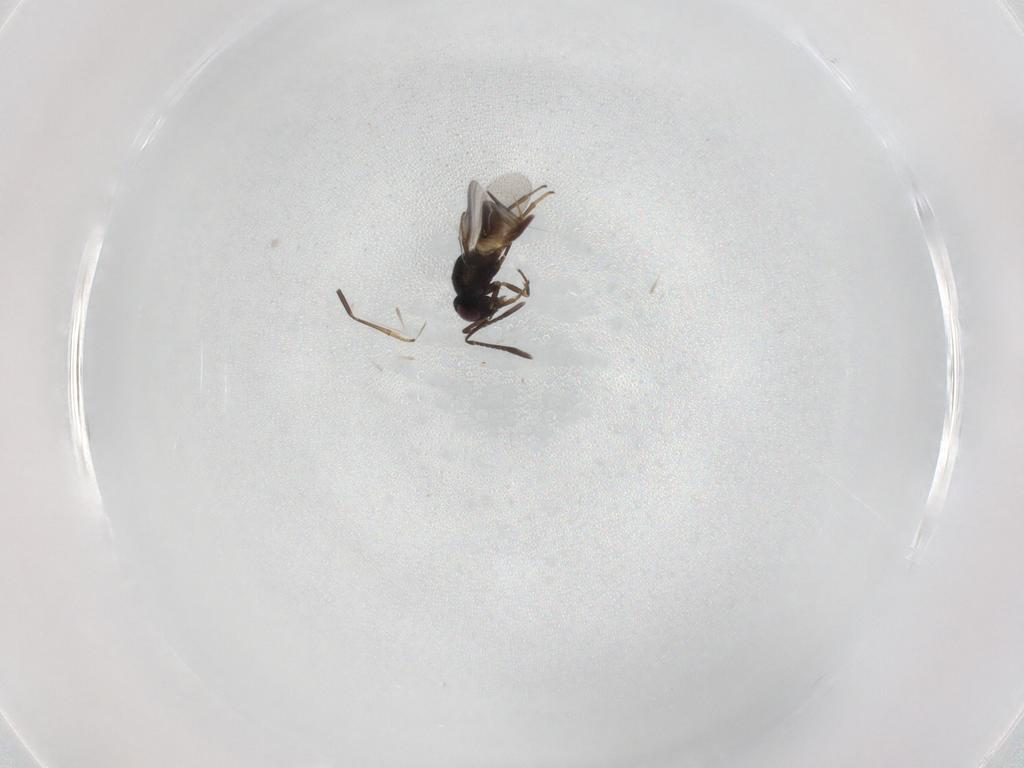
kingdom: Animalia
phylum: Arthropoda
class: Insecta
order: Hymenoptera
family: Encyrtidae
